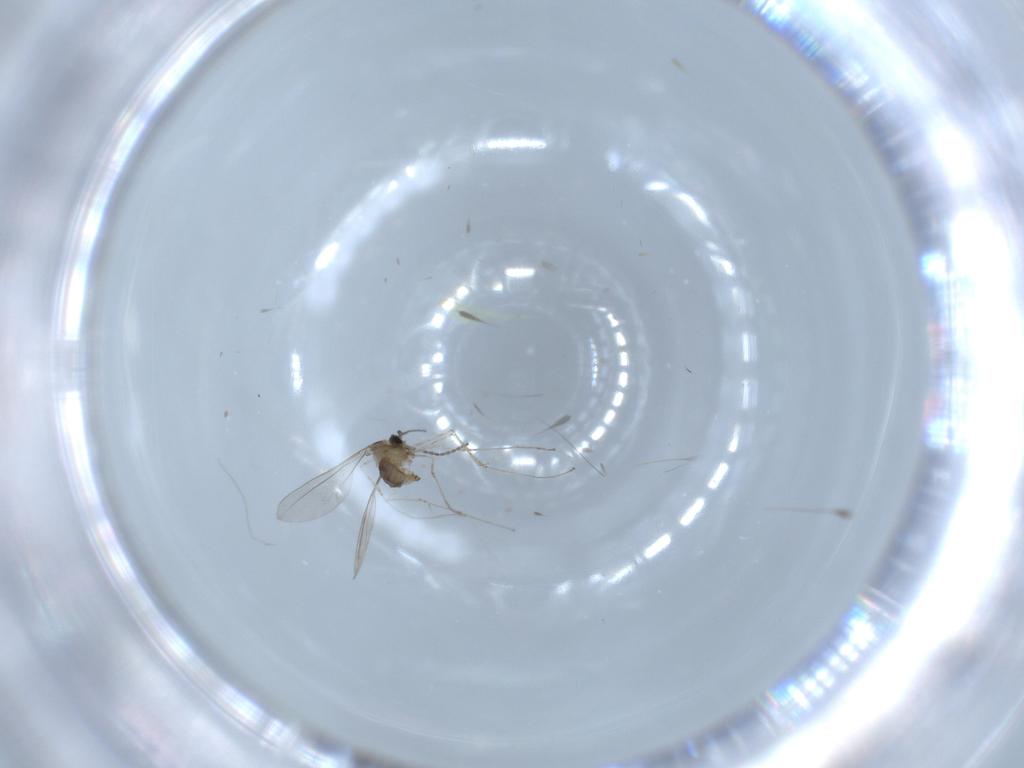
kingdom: Animalia
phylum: Arthropoda
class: Insecta
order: Diptera
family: Cecidomyiidae
